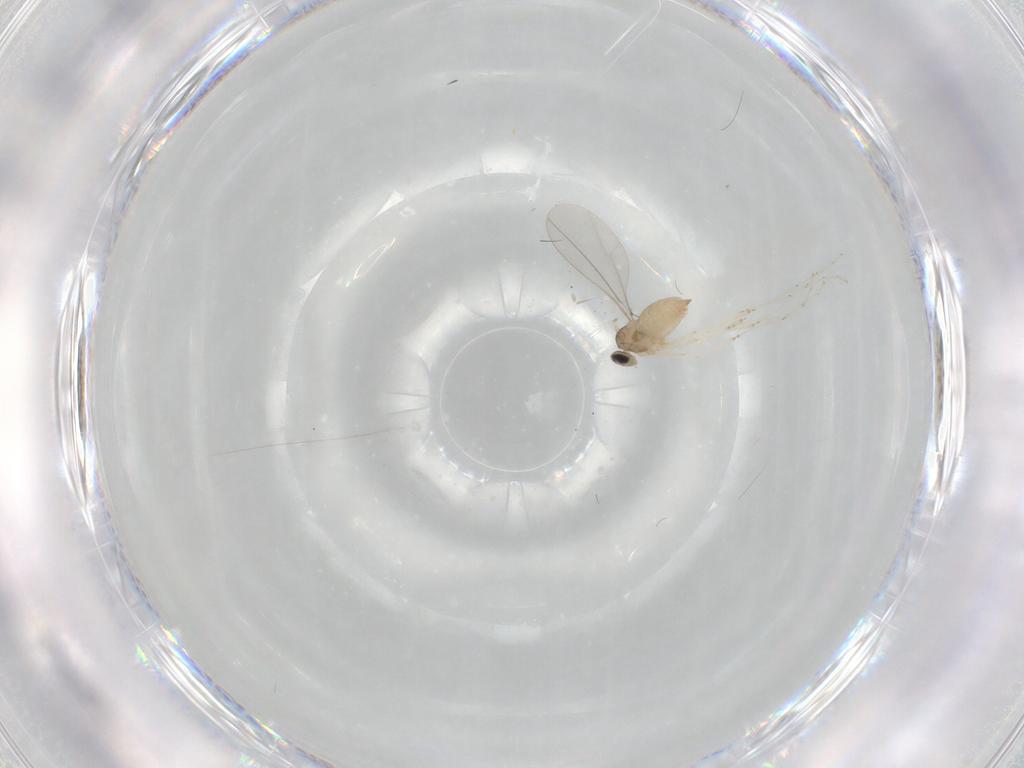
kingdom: Animalia
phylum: Arthropoda
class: Insecta
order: Diptera
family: Cecidomyiidae
